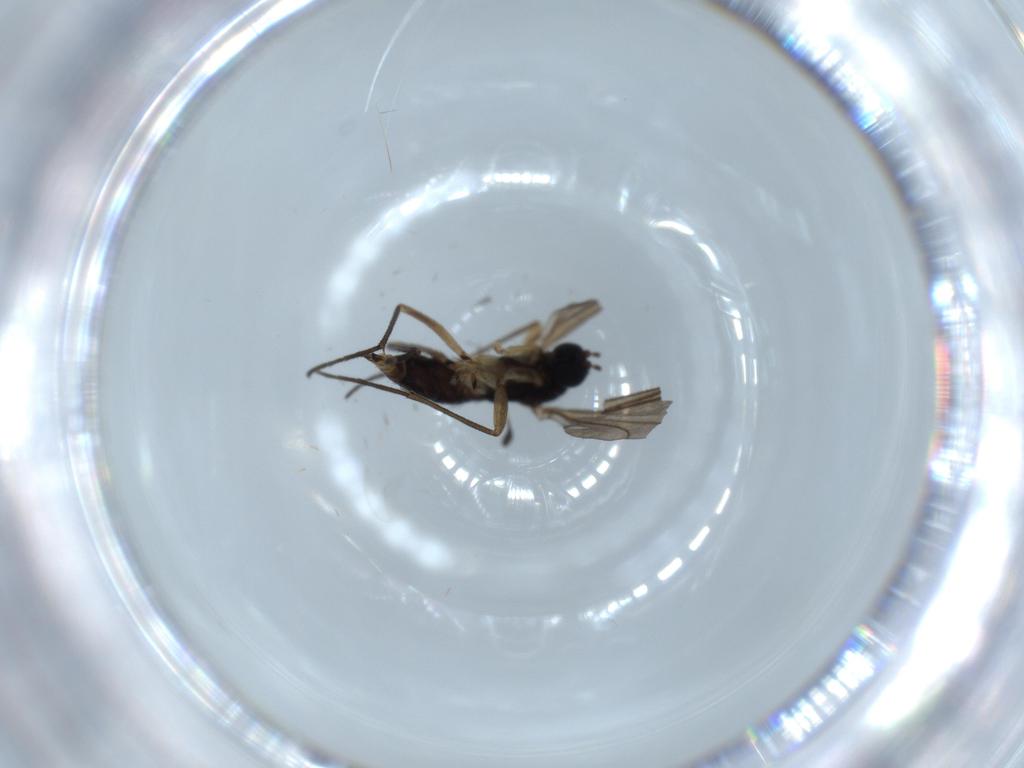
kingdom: Animalia
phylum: Arthropoda
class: Insecta
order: Diptera
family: Sciaridae
